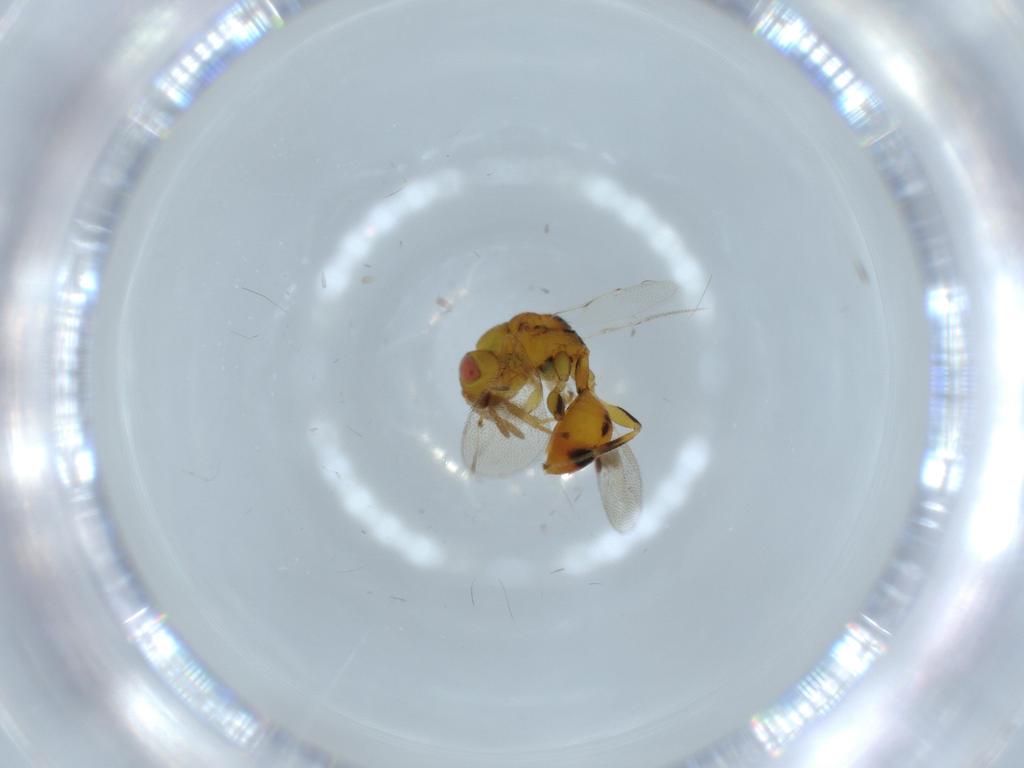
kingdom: Animalia
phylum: Arthropoda
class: Insecta
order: Hymenoptera
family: Eurytomidae
